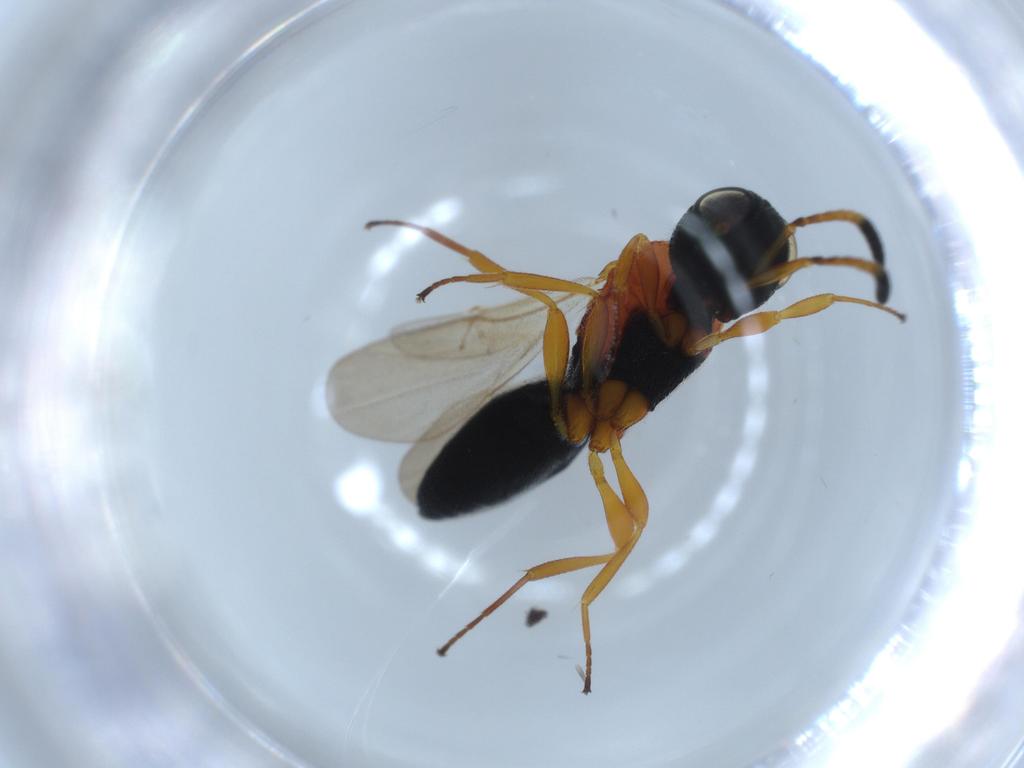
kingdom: Animalia
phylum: Arthropoda
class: Insecta
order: Hymenoptera
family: Scelionidae
